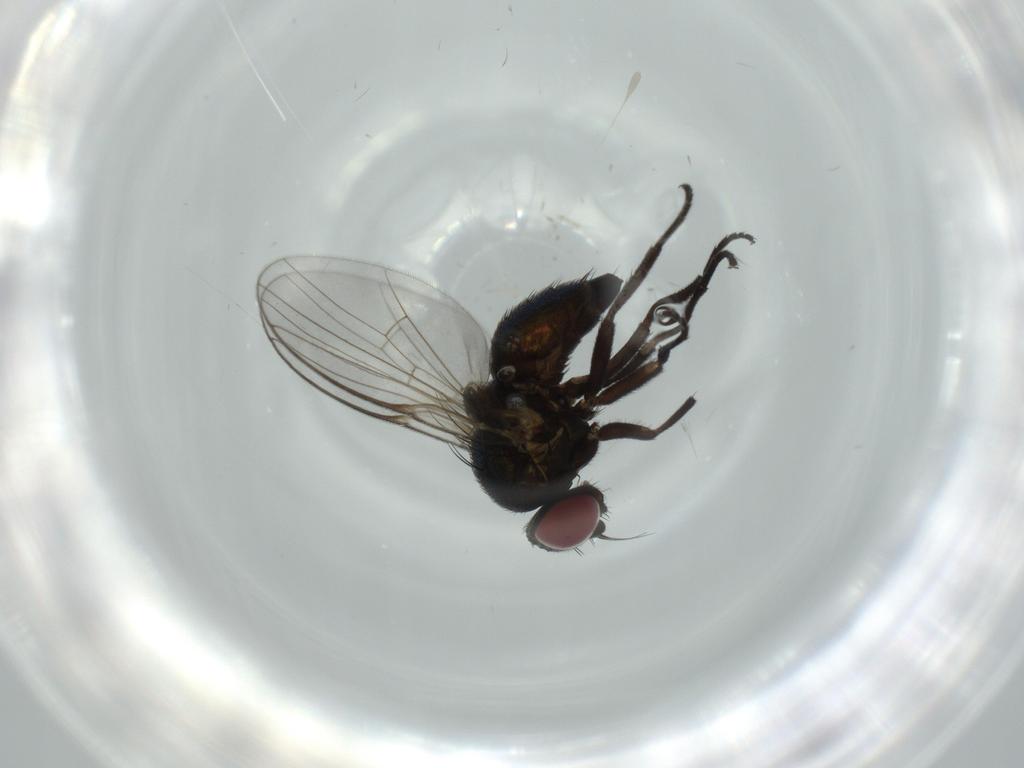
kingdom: Animalia
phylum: Arthropoda
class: Insecta
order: Diptera
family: Agromyzidae
